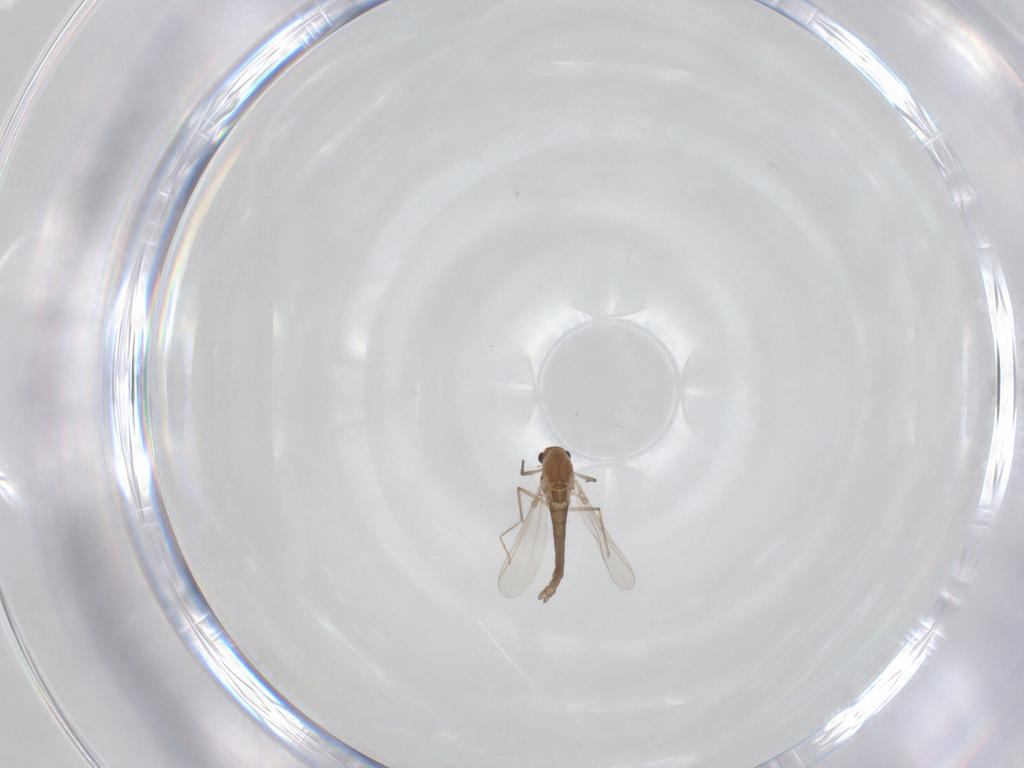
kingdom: Animalia
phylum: Arthropoda
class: Insecta
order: Diptera
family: Chironomidae
